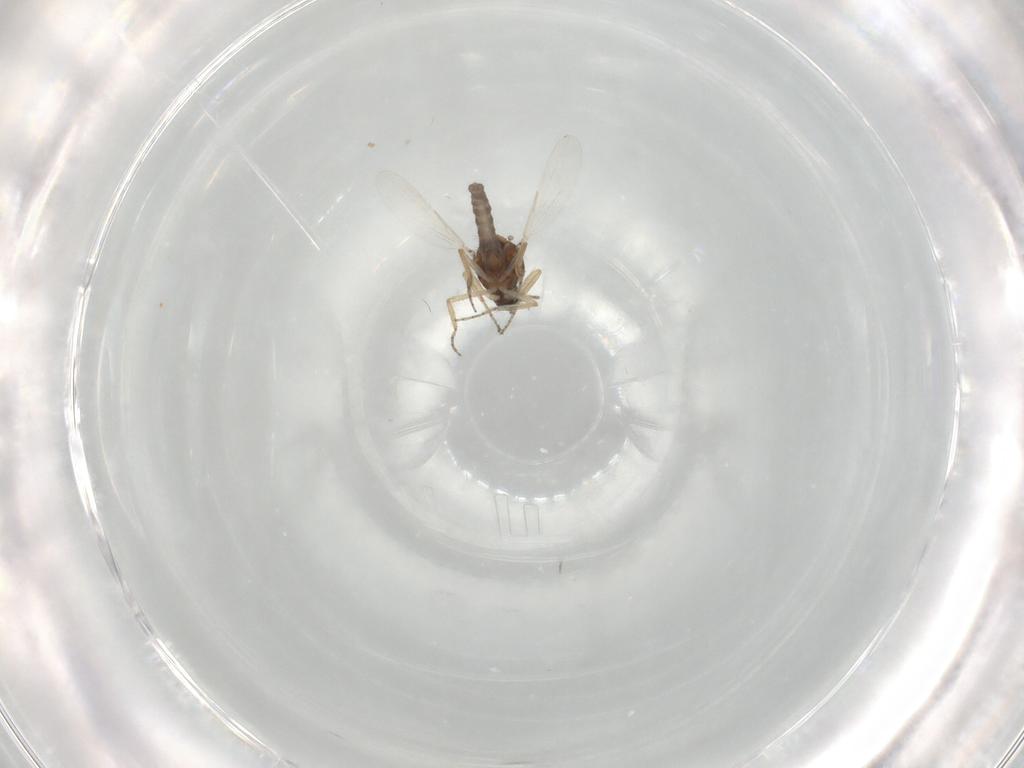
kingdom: Animalia
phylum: Arthropoda
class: Insecta
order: Diptera
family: Ceratopogonidae
